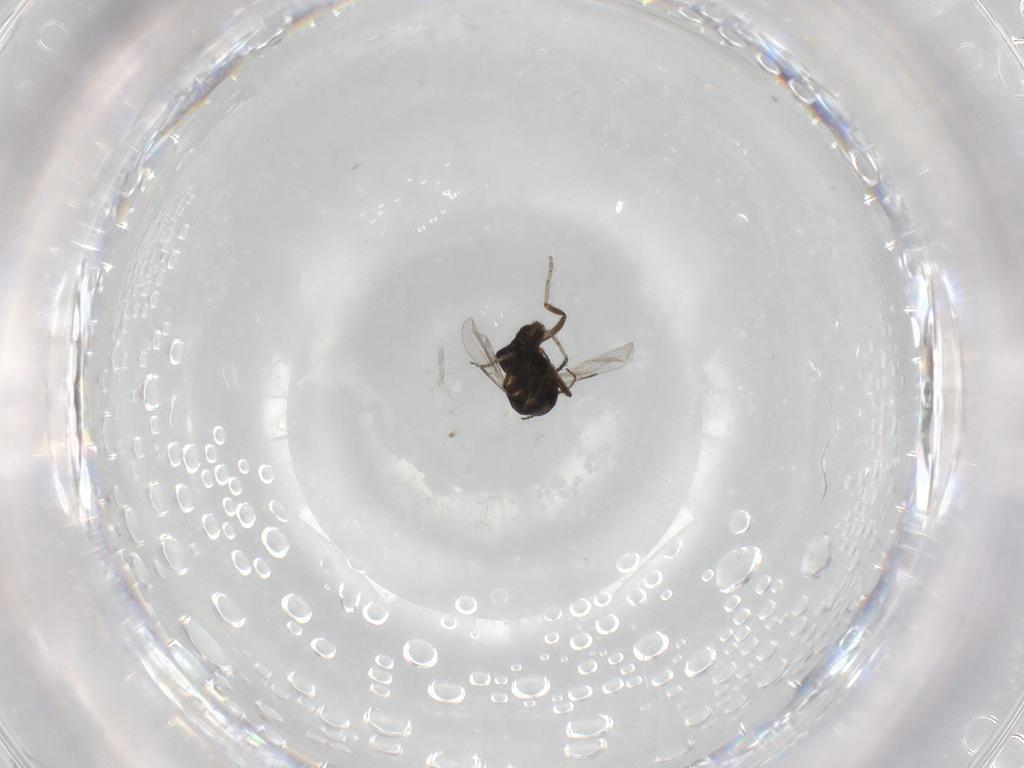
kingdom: Animalia
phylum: Arthropoda
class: Insecta
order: Diptera
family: Ceratopogonidae
